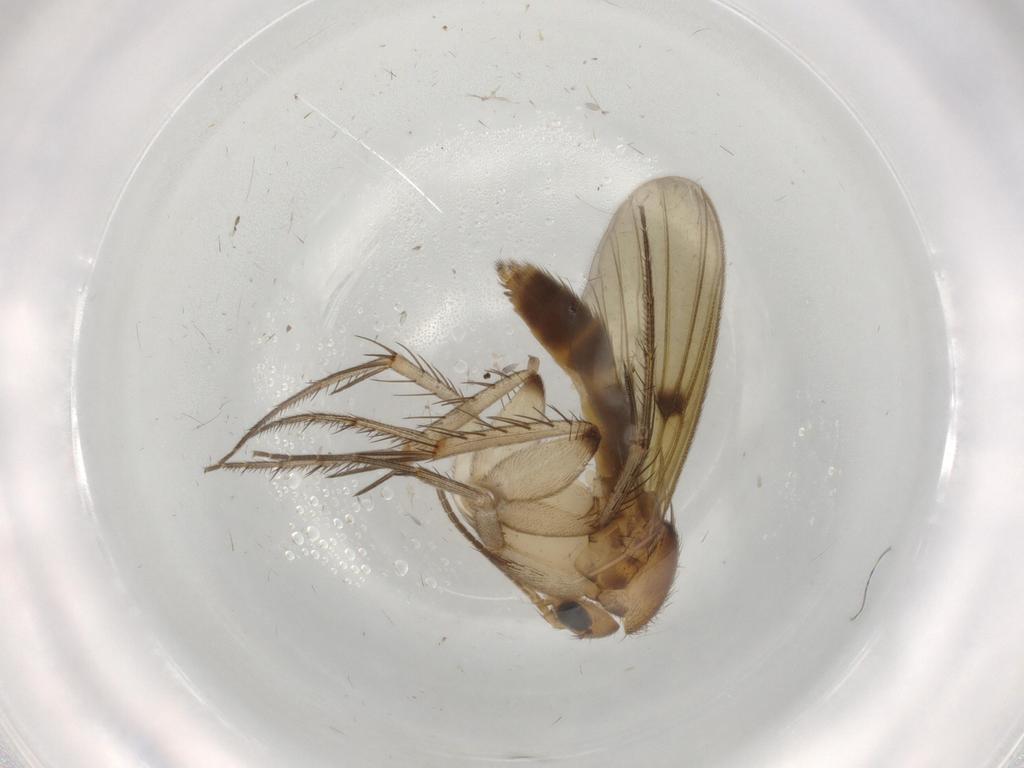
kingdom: Animalia
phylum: Arthropoda
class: Insecta
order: Diptera
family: Mycetophilidae
